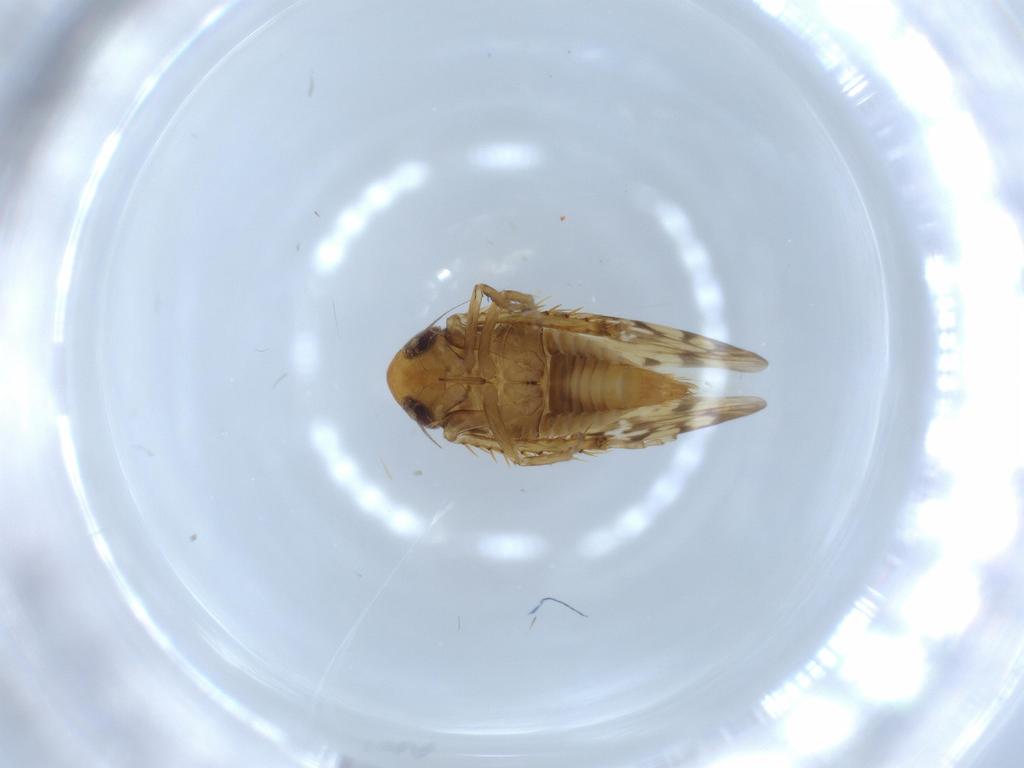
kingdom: Animalia
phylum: Arthropoda
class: Insecta
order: Hemiptera
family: Cicadellidae
